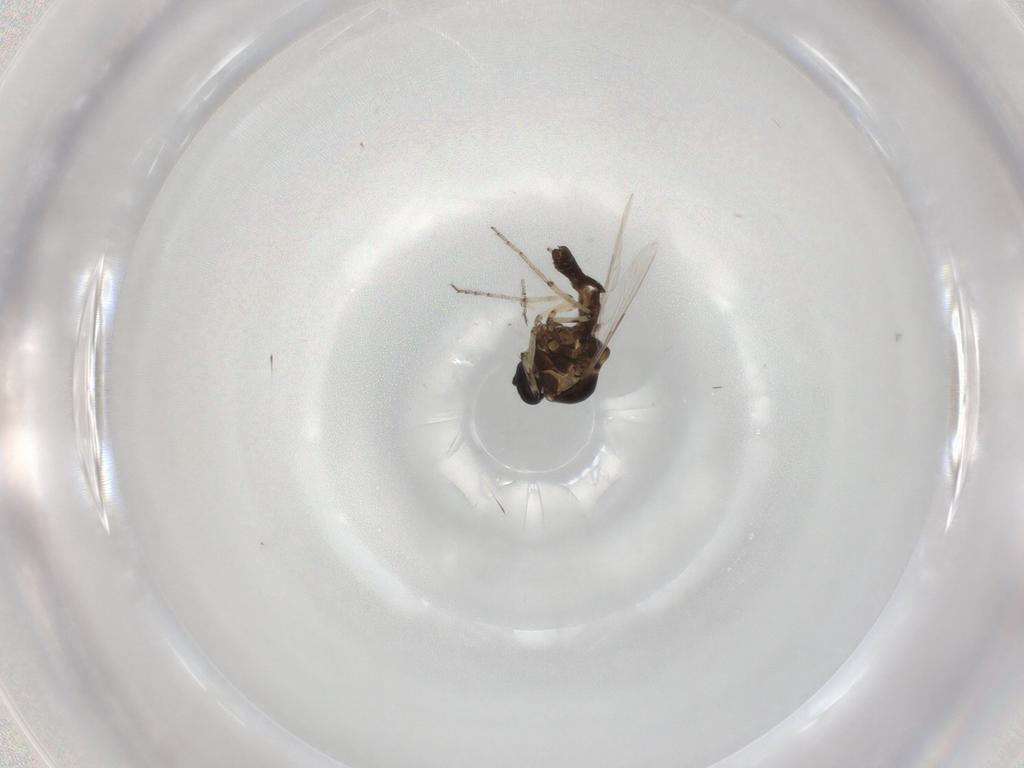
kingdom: Animalia
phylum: Arthropoda
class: Insecta
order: Diptera
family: Ceratopogonidae
